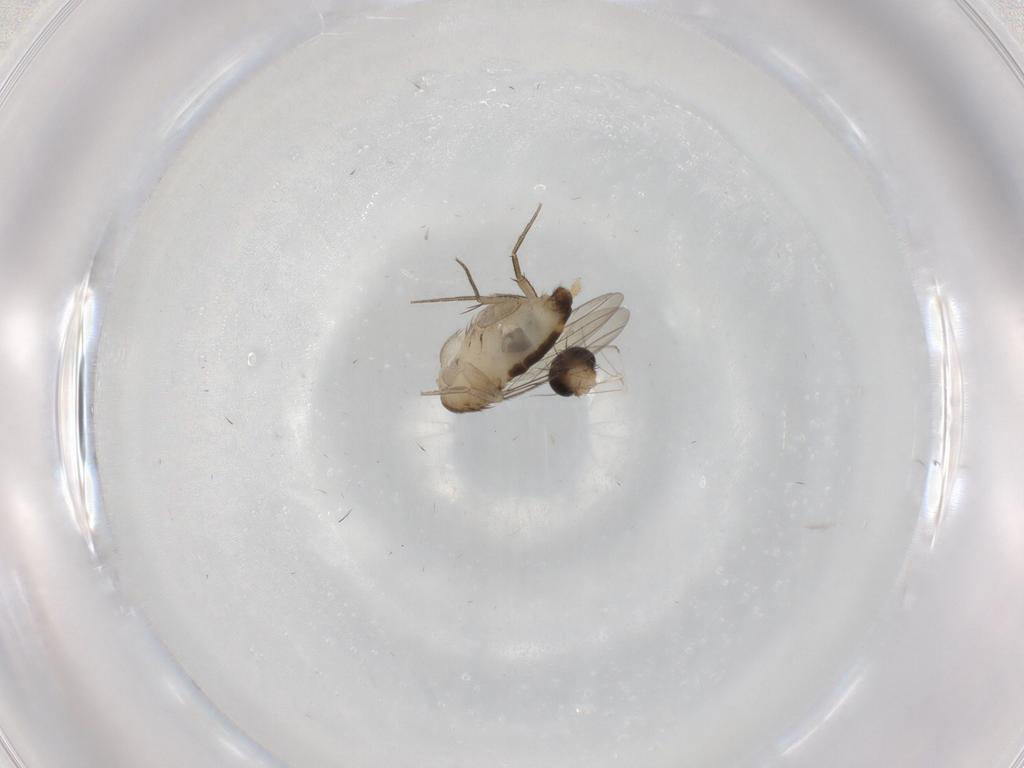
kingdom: Animalia
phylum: Arthropoda
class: Insecta
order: Diptera
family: Phoridae
